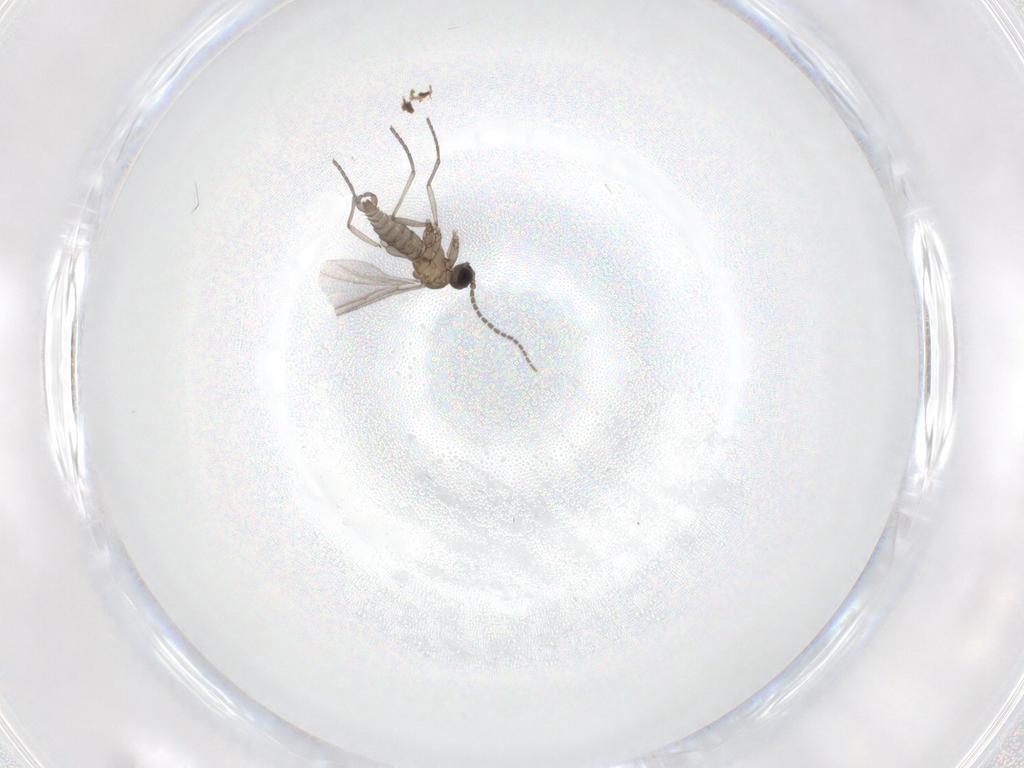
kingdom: Animalia
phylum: Arthropoda
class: Insecta
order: Diptera
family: Sciaridae
